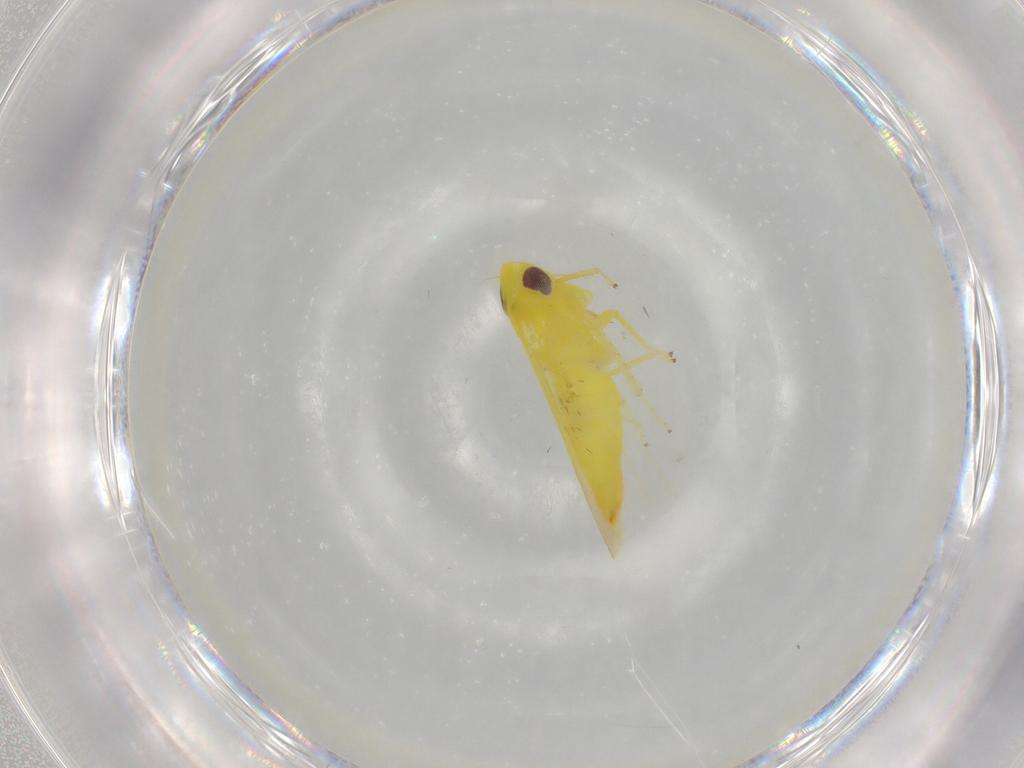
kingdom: Animalia
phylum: Arthropoda
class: Insecta
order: Hemiptera
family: Cicadellidae
